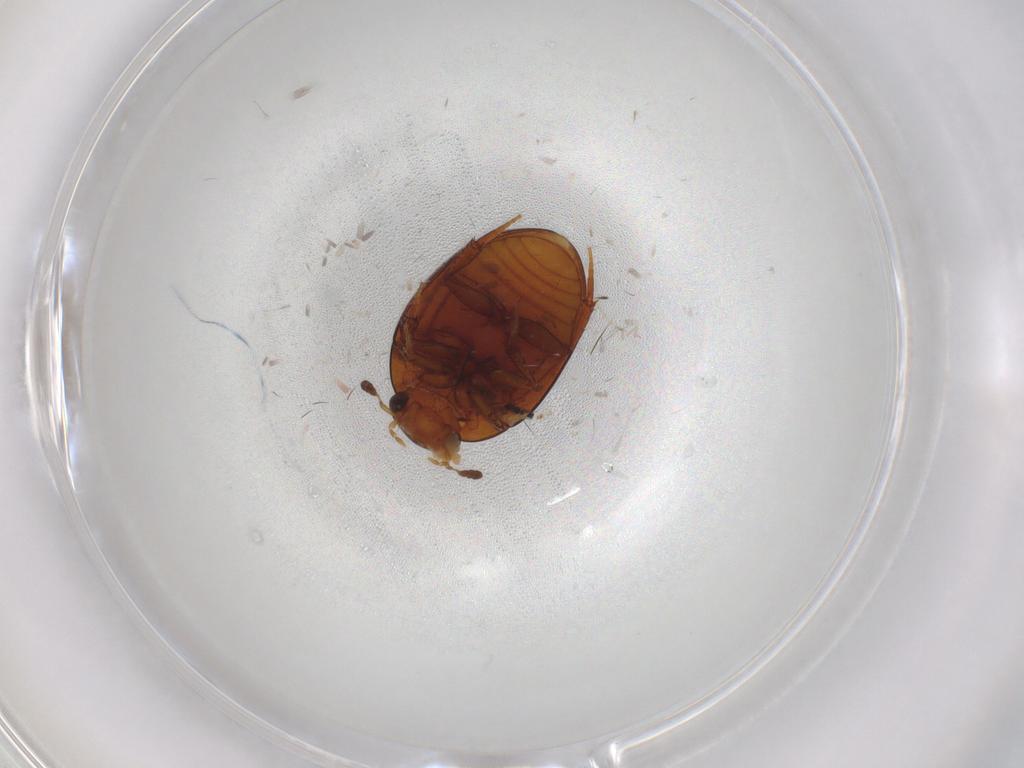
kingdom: Animalia
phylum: Arthropoda
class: Insecta
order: Coleoptera
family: Hydrophilidae
